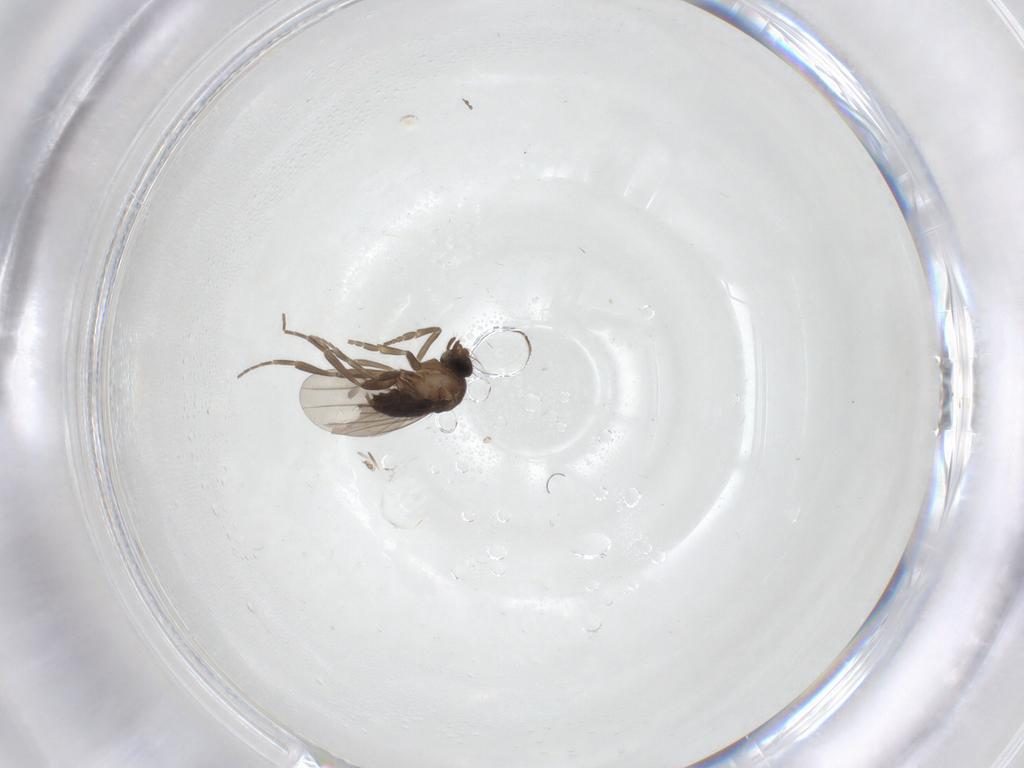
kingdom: Animalia
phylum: Arthropoda
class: Insecta
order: Diptera
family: Phoridae
